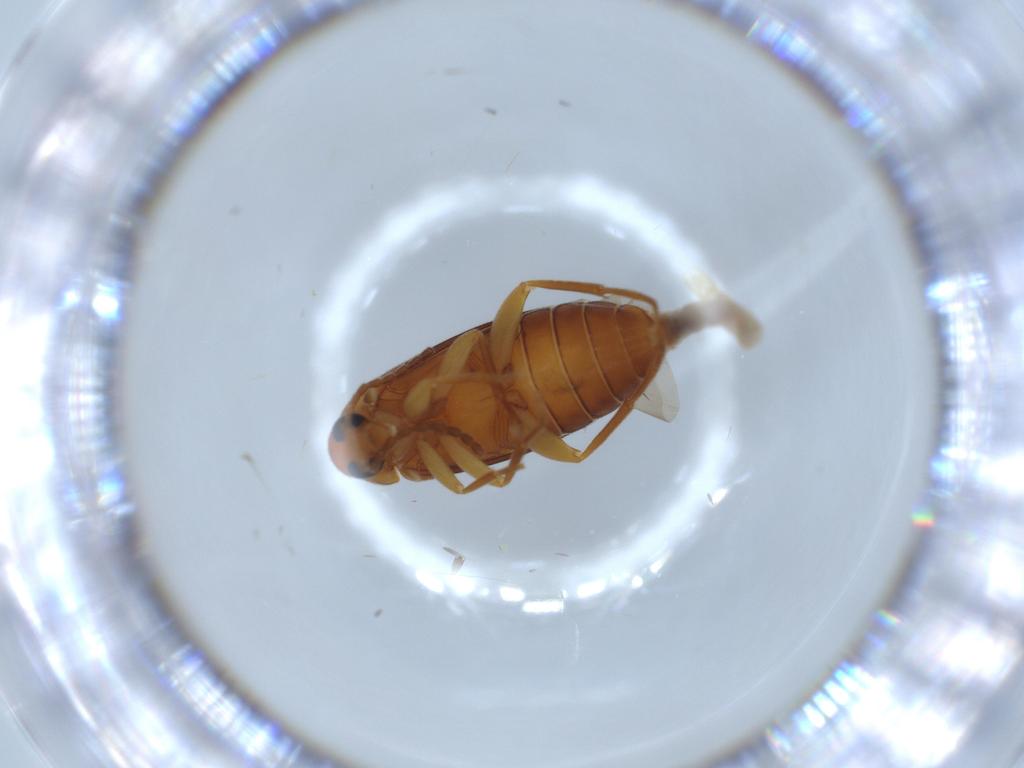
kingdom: Animalia
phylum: Arthropoda
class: Insecta
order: Coleoptera
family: Scraptiidae
